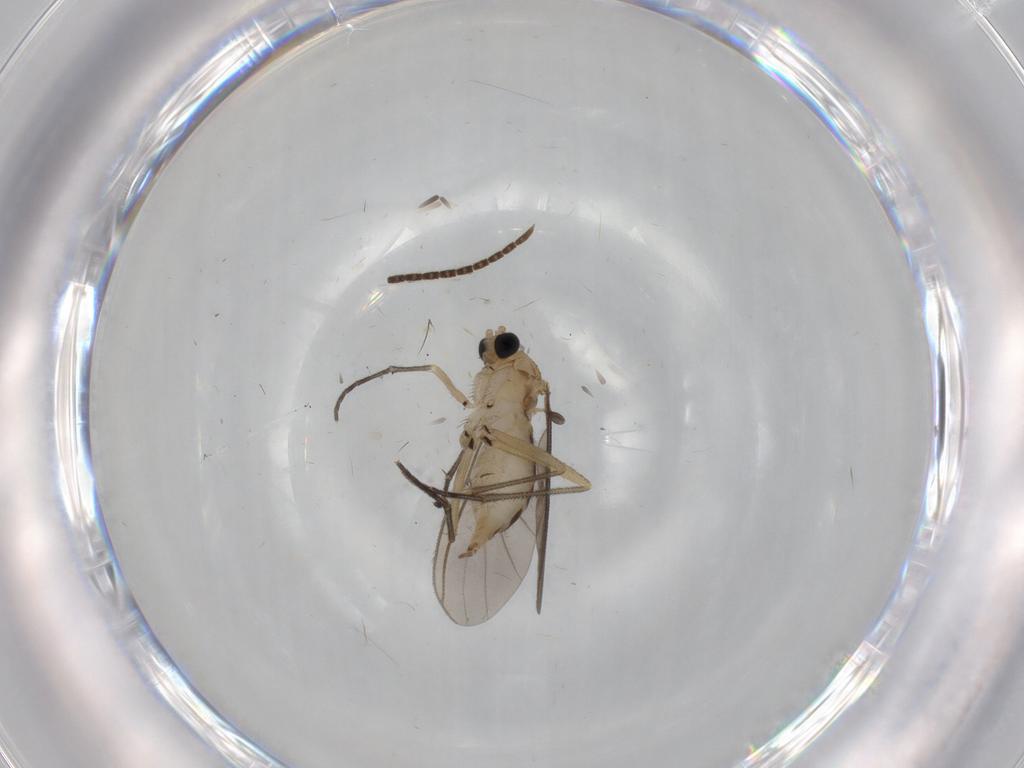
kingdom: Animalia
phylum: Arthropoda
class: Insecta
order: Diptera
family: Sciaridae
